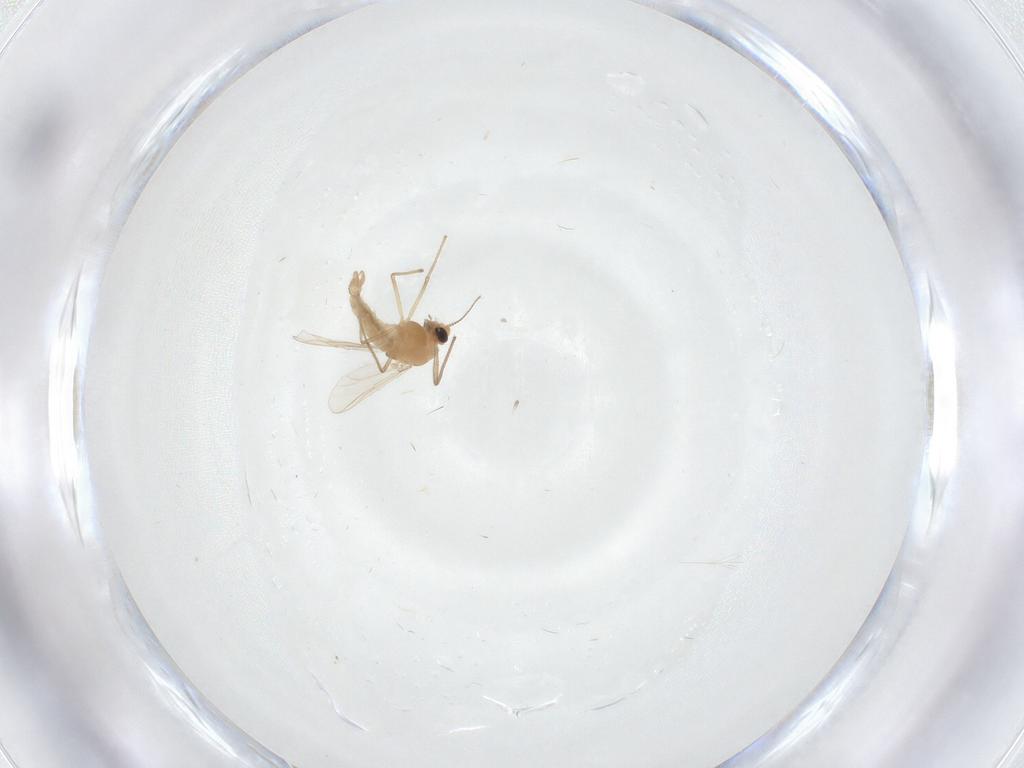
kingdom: Animalia
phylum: Arthropoda
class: Insecta
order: Diptera
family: Chironomidae
